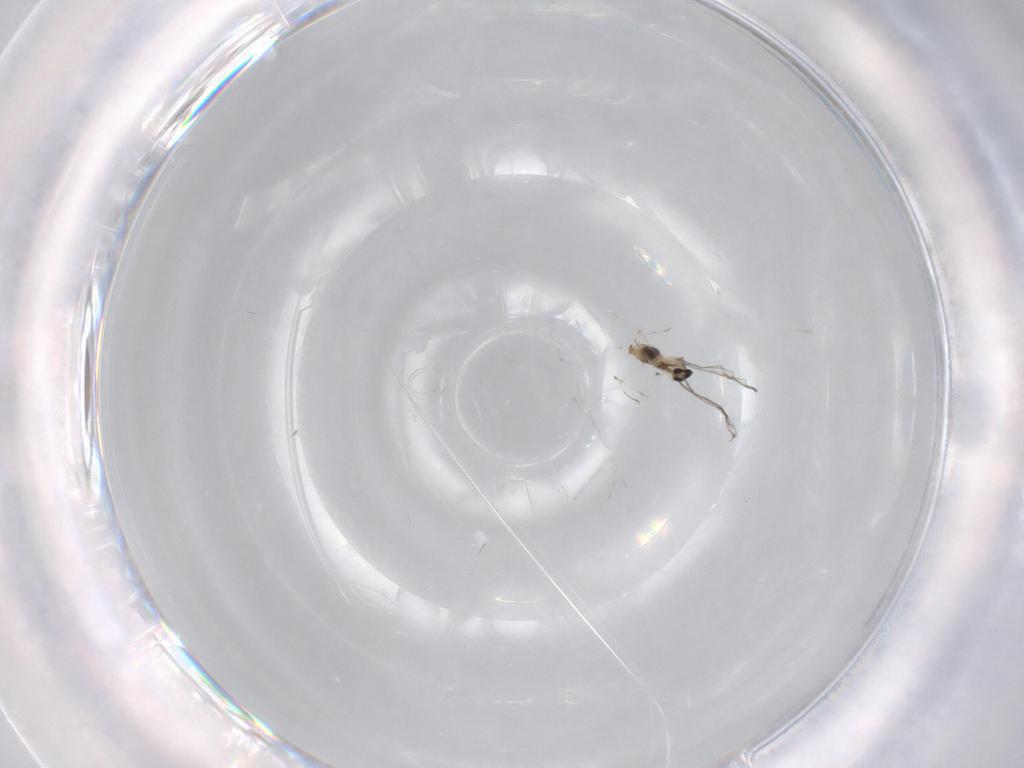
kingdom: Animalia
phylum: Arthropoda
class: Insecta
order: Diptera
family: Cecidomyiidae
